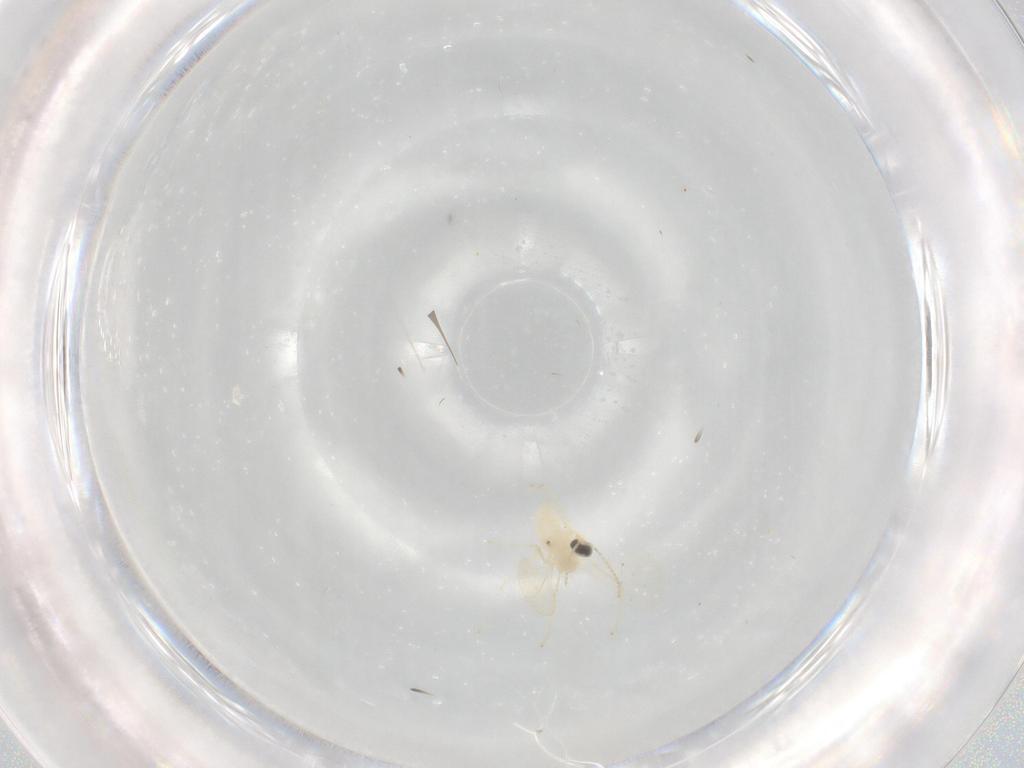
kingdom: Animalia
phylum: Arthropoda
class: Insecta
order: Diptera
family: Cecidomyiidae
